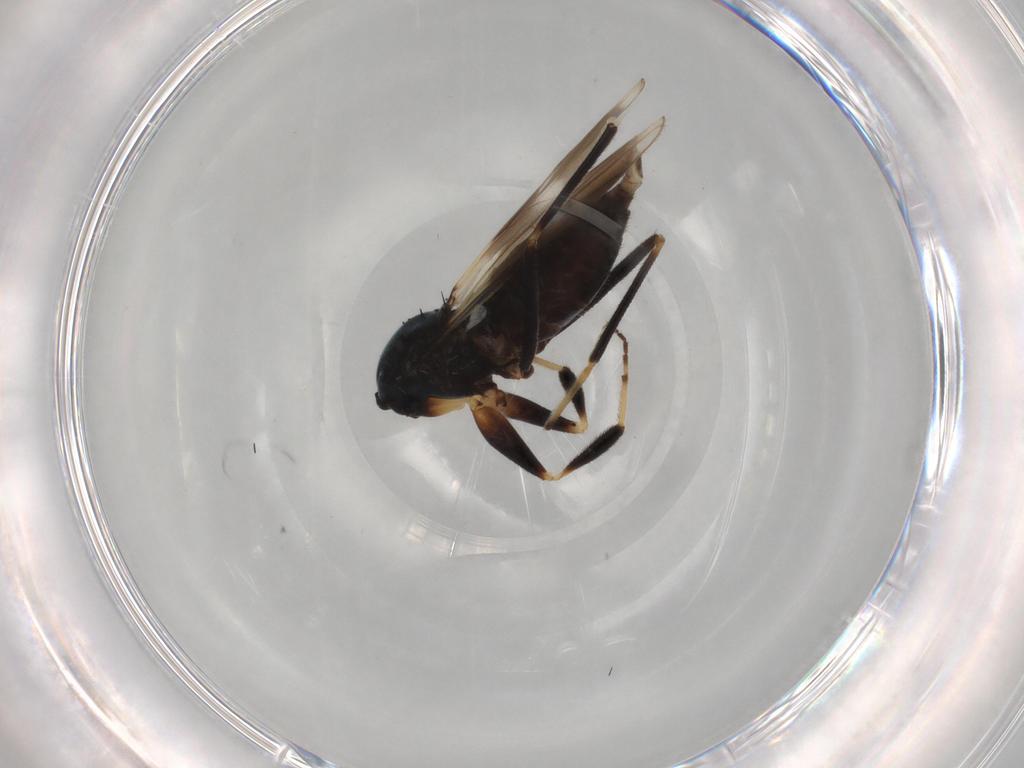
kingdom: Animalia
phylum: Arthropoda
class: Insecta
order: Diptera
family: Hybotidae
